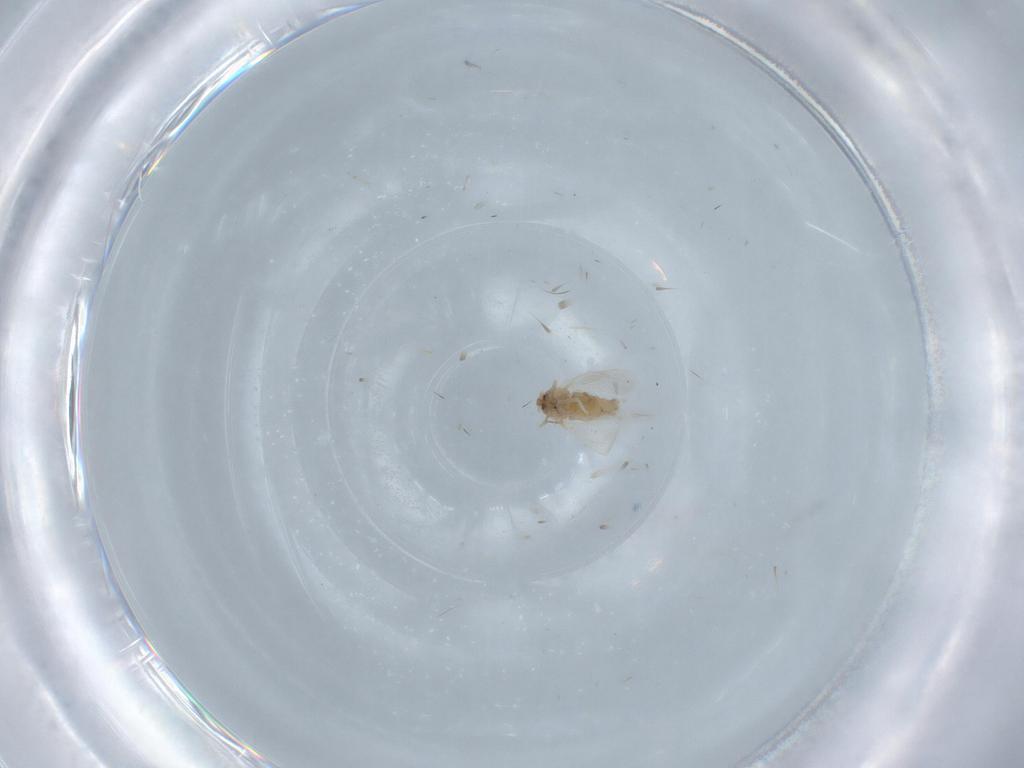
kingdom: Animalia
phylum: Arthropoda
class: Insecta
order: Hemiptera
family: Aleyrodidae
